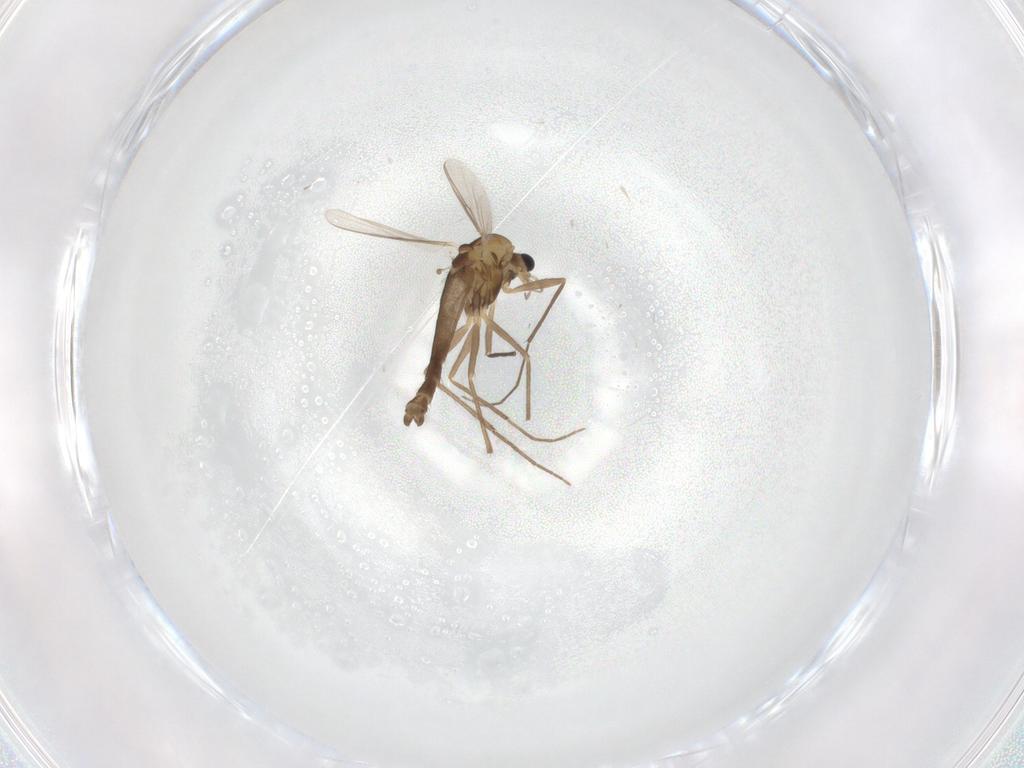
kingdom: Animalia
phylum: Arthropoda
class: Insecta
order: Diptera
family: Chironomidae
